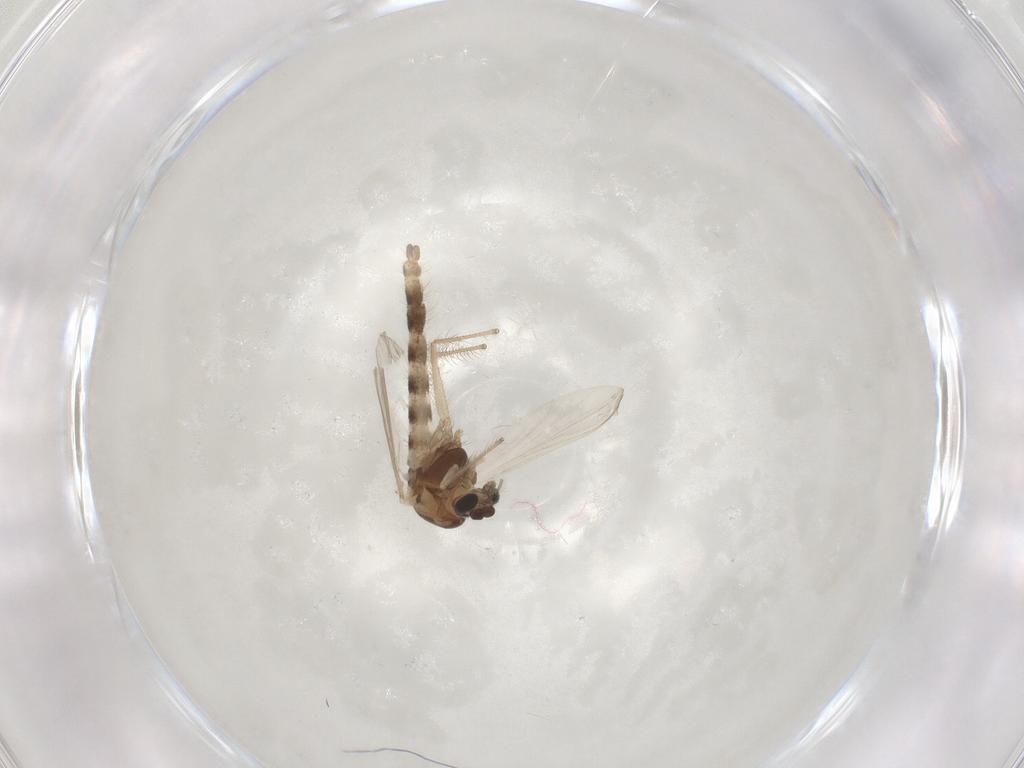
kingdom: Animalia
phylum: Arthropoda
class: Insecta
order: Diptera
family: Chironomidae
